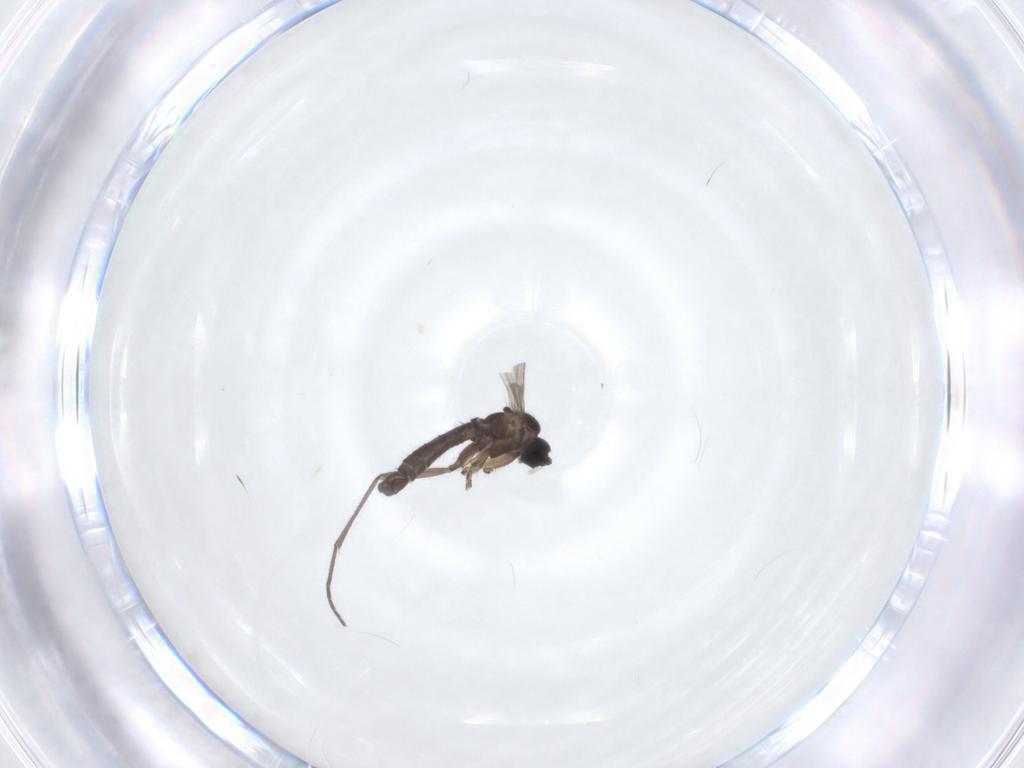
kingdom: Animalia
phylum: Arthropoda
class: Insecta
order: Diptera
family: Sciaridae
